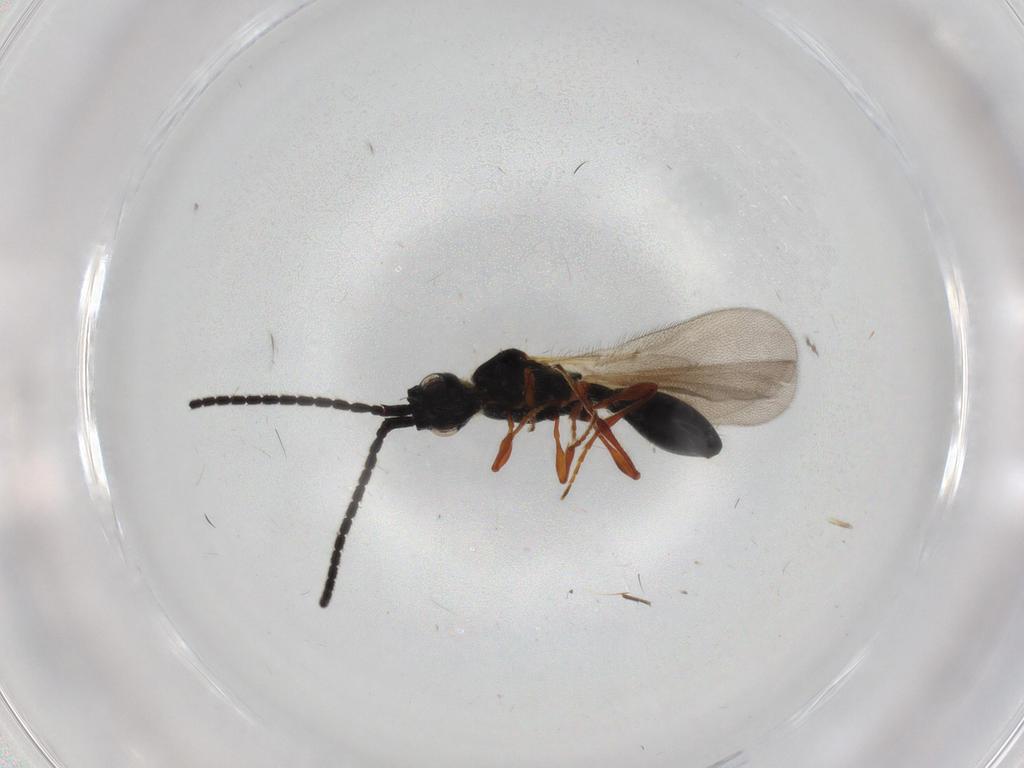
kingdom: Animalia
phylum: Arthropoda
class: Insecta
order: Hymenoptera
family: Diapriidae
